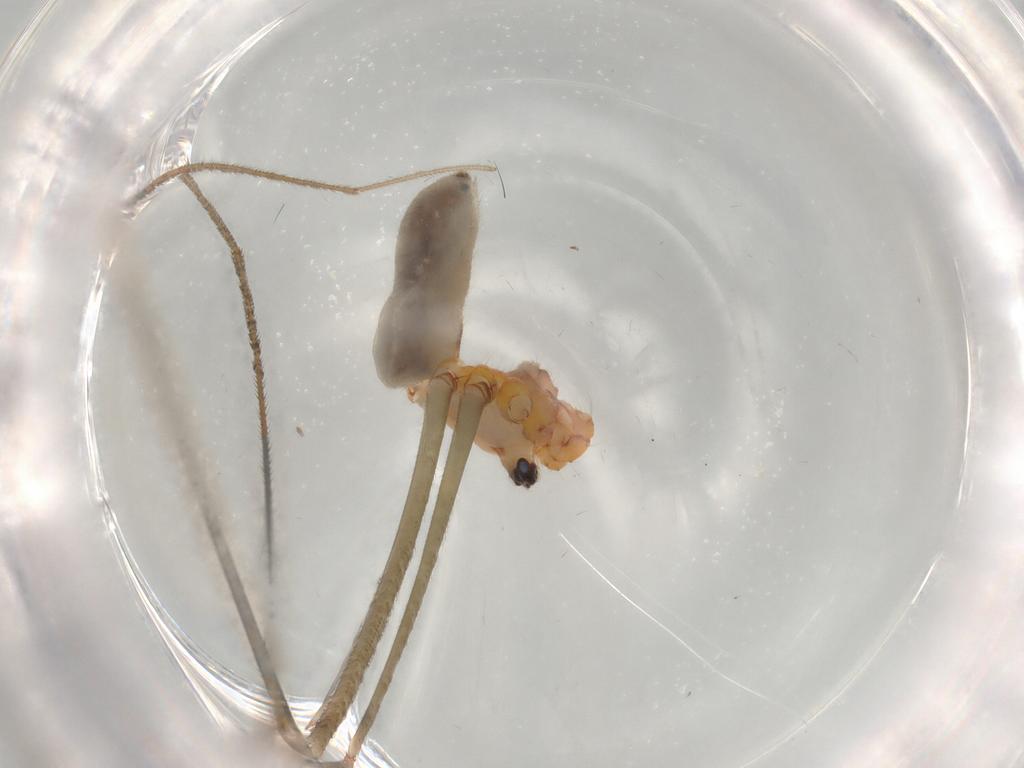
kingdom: Animalia
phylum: Arthropoda
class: Arachnida
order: Araneae
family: Pholcidae
